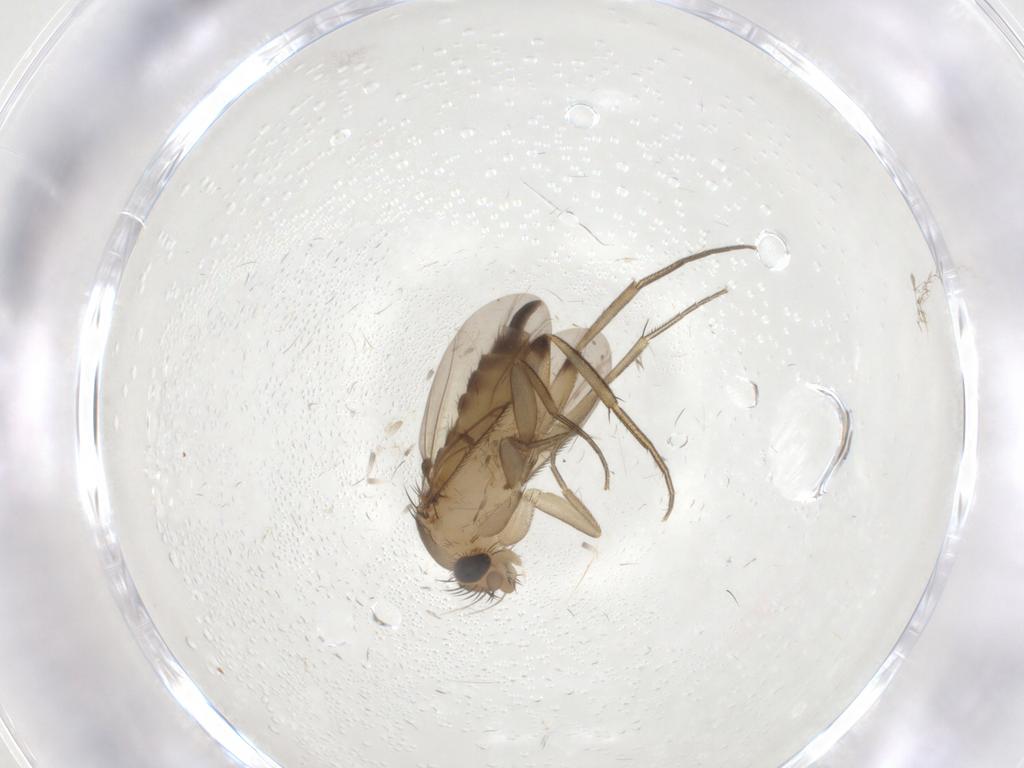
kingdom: Animalia
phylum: Arthropoda
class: Insecta
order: Diptera
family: Phoridae
